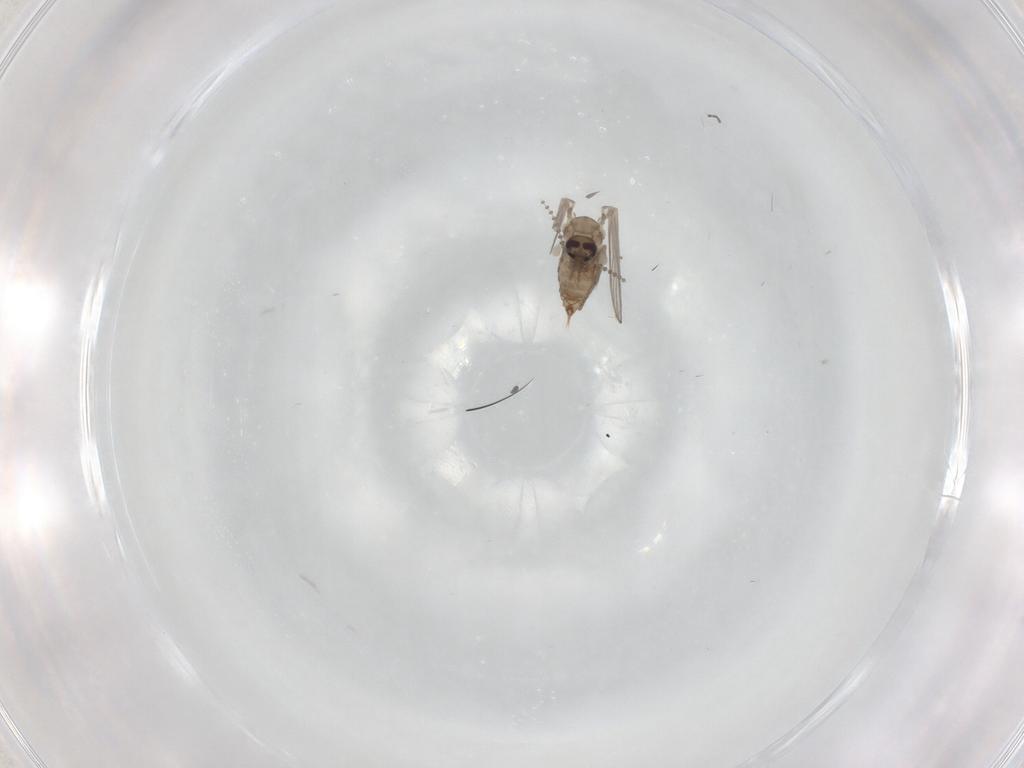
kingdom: Animalia
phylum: Arthropoda
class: Insecta
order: Diptera
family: Psychodidae
